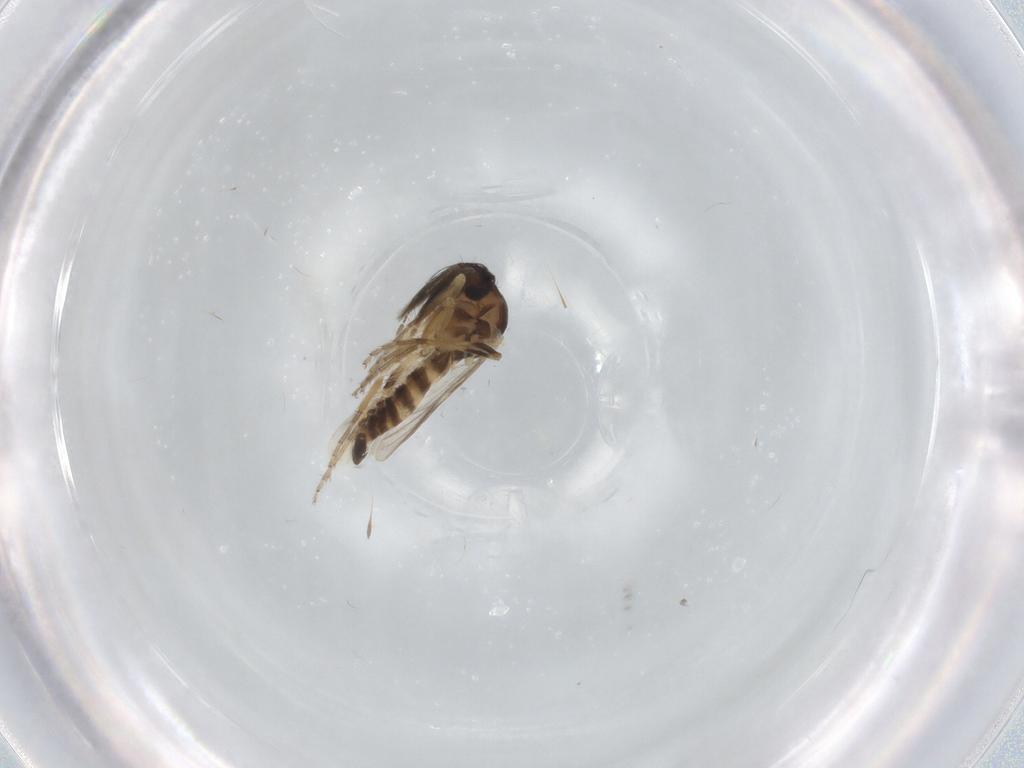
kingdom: Animalia
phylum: Arthropoda
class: Insecta
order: Diptera
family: Ceratopogonidae
